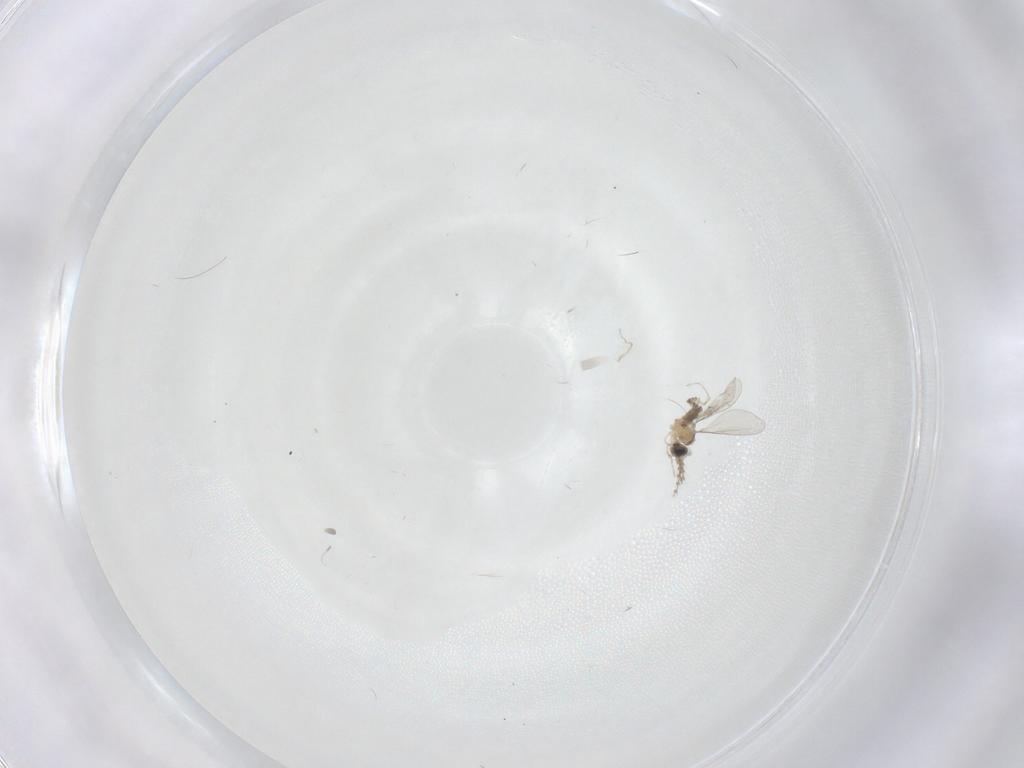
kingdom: Animalia
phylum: Arthropoda
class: Insecta
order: Diptera
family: Cecidomyiidae
